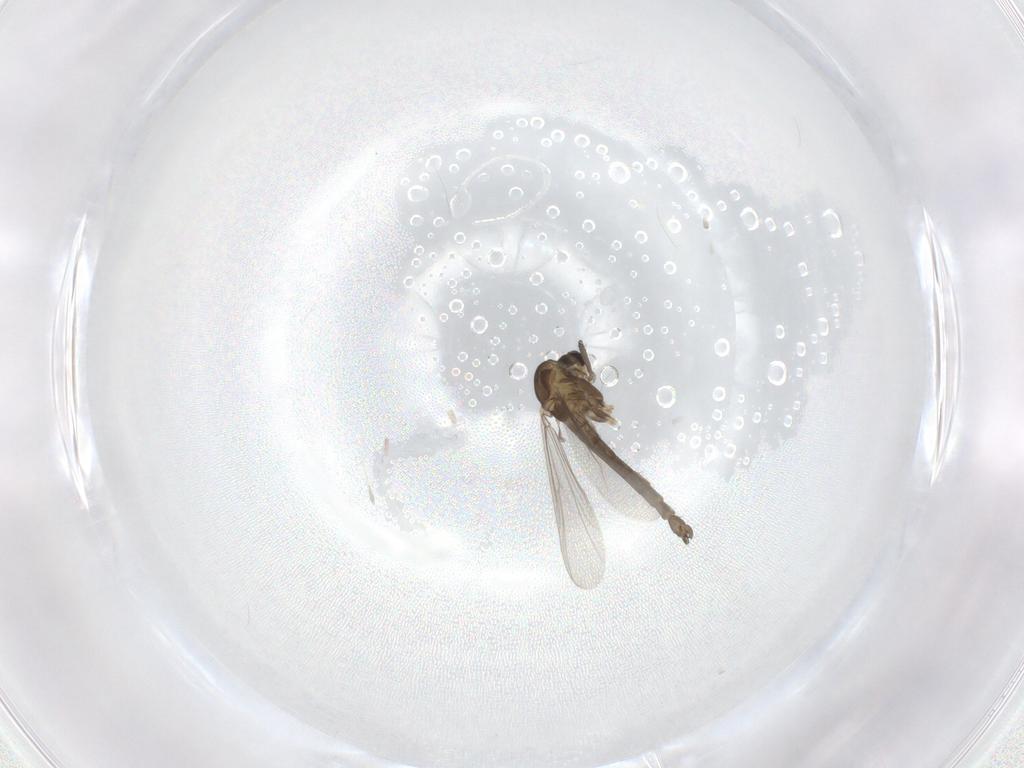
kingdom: Animalia
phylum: Arthropoda
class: Insecta
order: Diptera
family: Chironomidae
